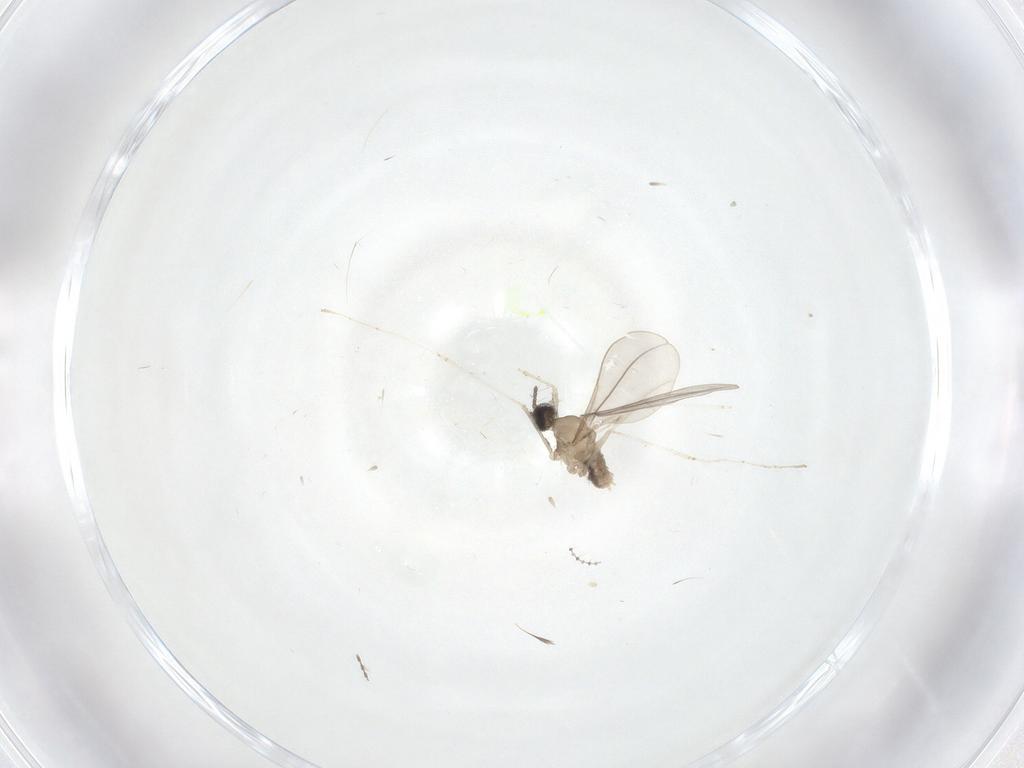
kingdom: Animalia
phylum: Arthropoda
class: Insecta
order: Diptera
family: Cecidomyiidae
